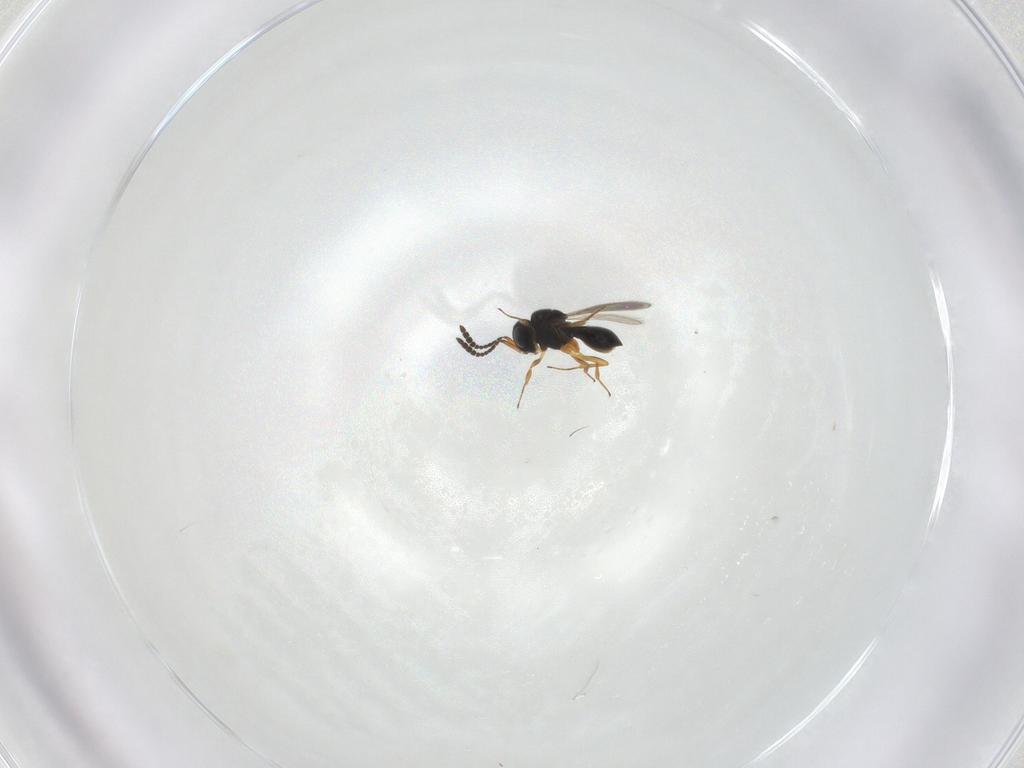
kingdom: Animalia
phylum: Arthropoda
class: Insecta
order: Hymenoptera
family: Scelionidae
